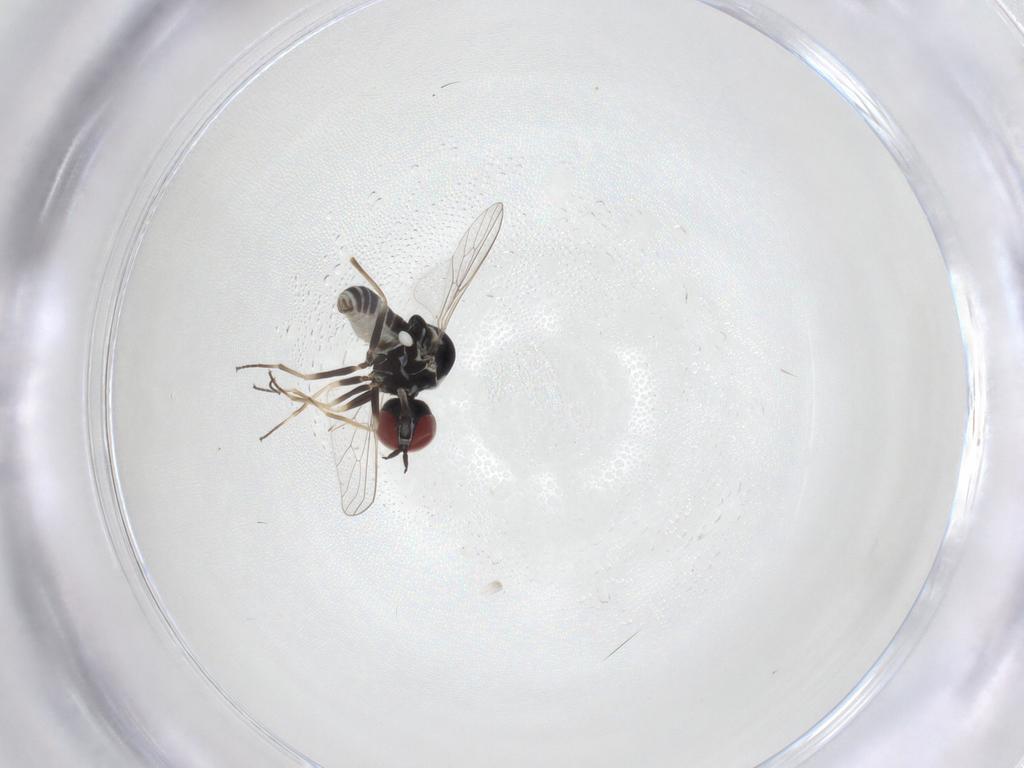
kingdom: Animalia
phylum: Arthropoda
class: Insecta
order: Diptera
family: Bombyliidae
